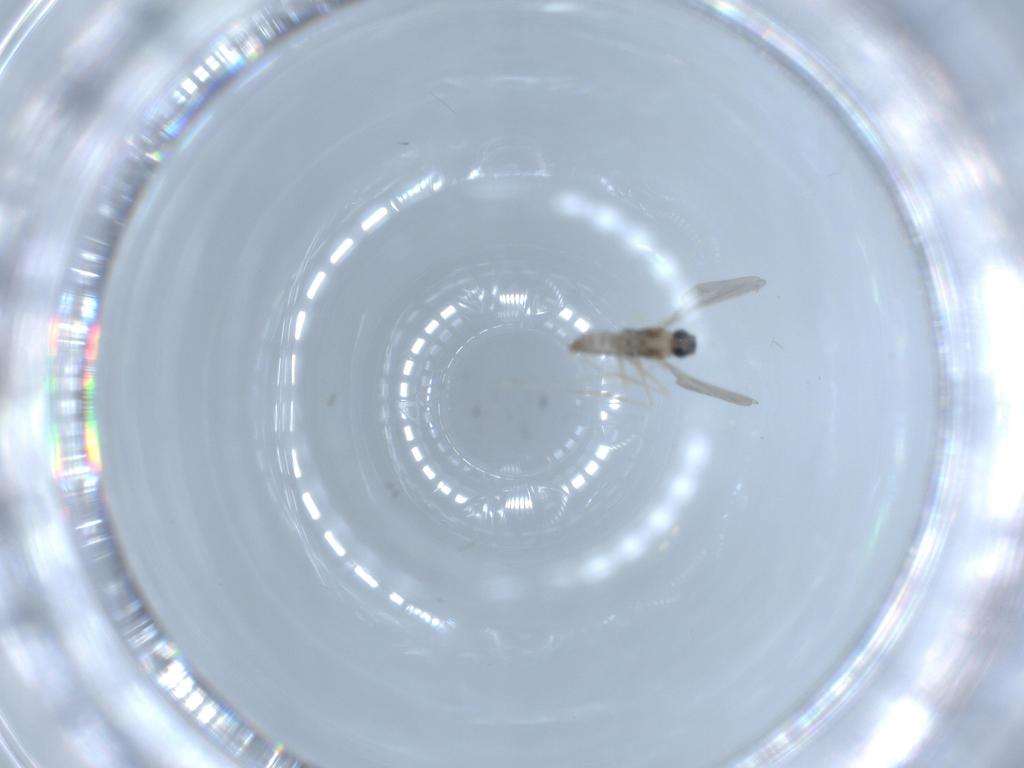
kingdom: Animalia
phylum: Arthropoda
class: Insecta
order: Diptera
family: Cecidomyiidae
